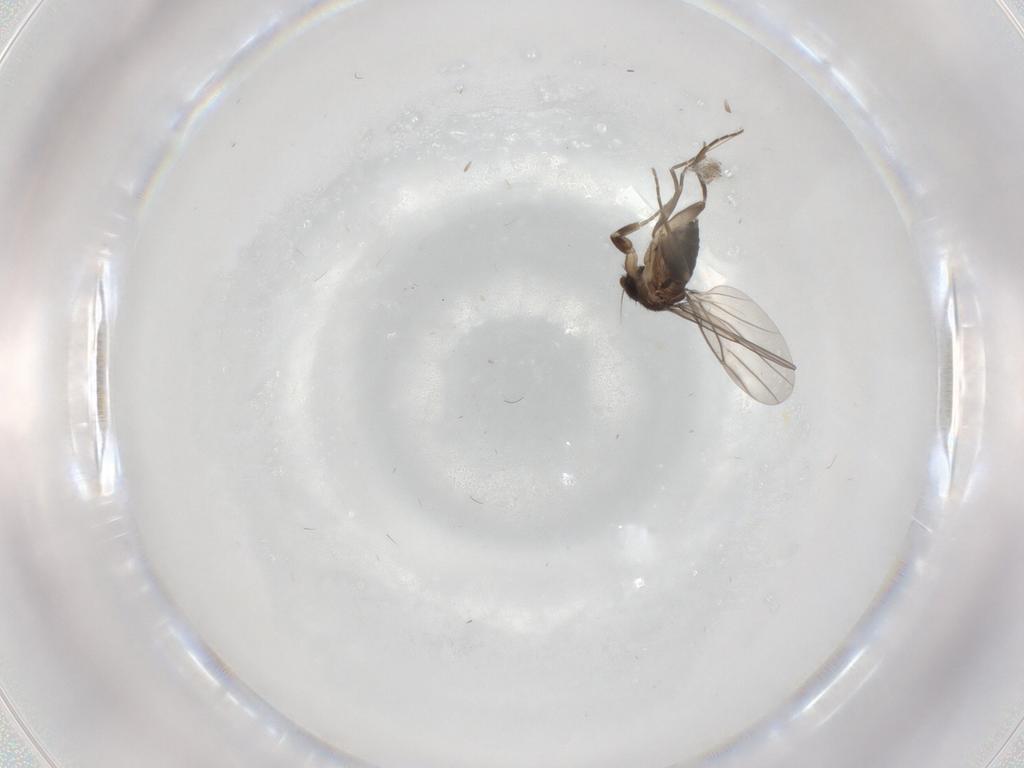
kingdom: Animalia
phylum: Arthropoda
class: Insecta
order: Diptera
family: Phoridae
